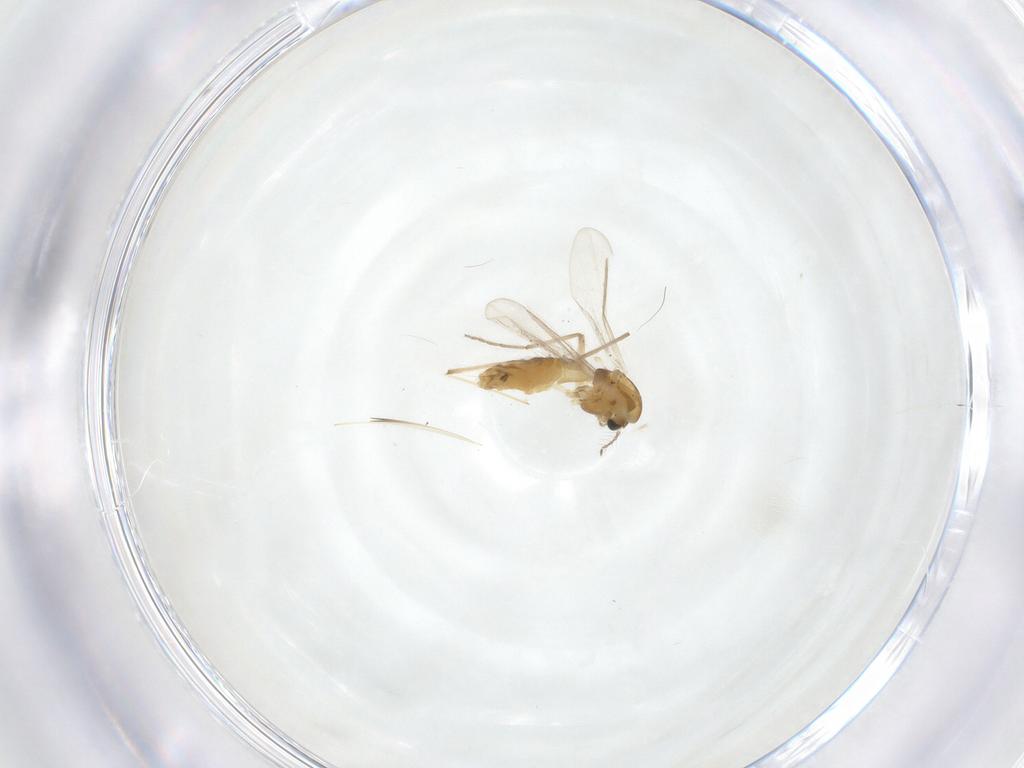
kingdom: Animalia
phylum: Arthropoda
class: Insecta
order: Diptera
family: Chironomidae
